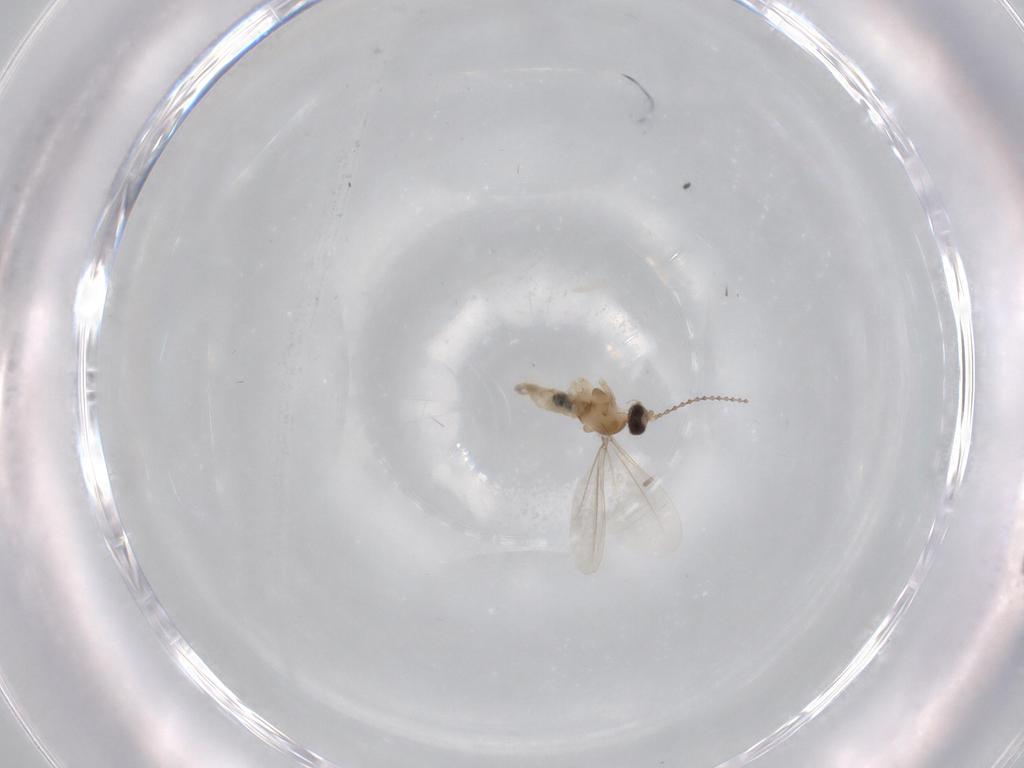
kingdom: Animalia
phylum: Arthropoda
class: Insecta
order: Diptera
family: Cecidomyiidae
